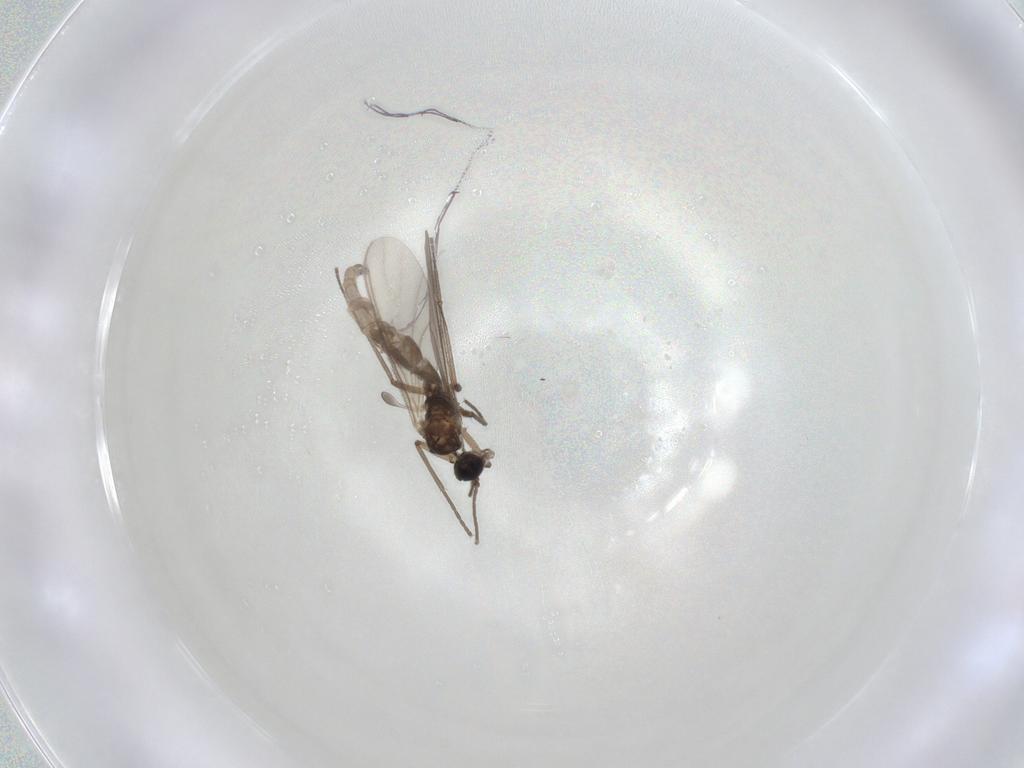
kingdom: Animalia
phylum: Arthropoda
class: Insecta
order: Diptera
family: Sciaridae
